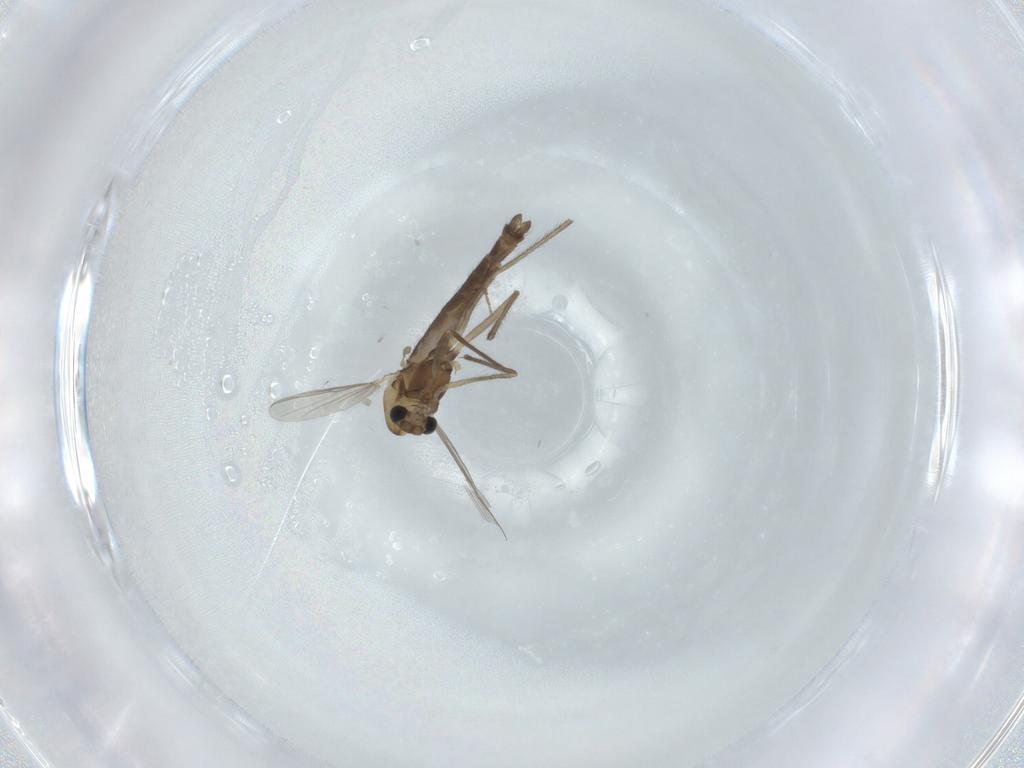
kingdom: Animalia
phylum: Arthropoda
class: Insecta
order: Diptera
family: Chironomidae
